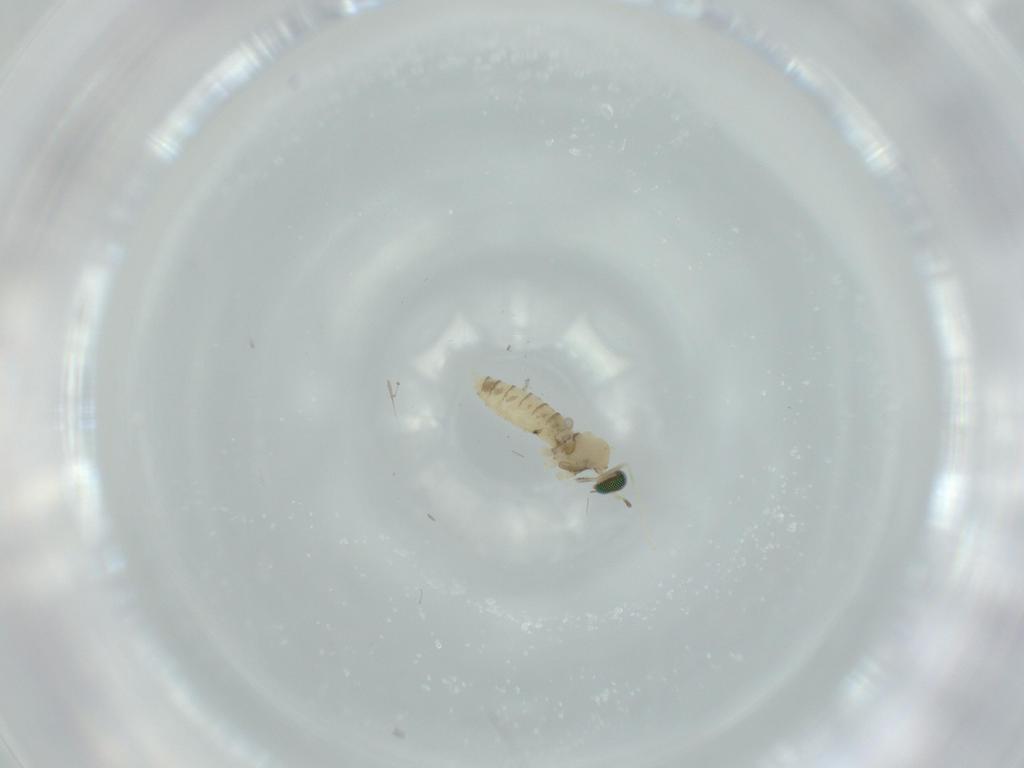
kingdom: Animalia
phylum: Arthropoda
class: Insecta
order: Diptera
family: Cecidomyiidae
